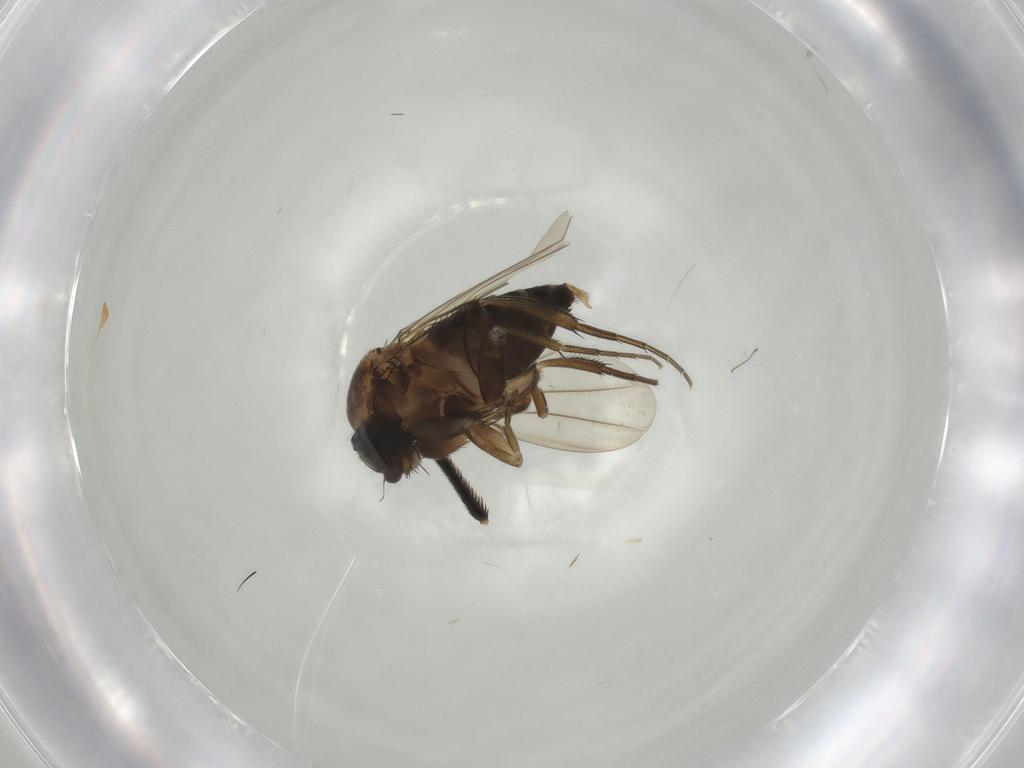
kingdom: Animalia
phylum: Arthropoda
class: Insecta
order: Diptera
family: Phoridae
